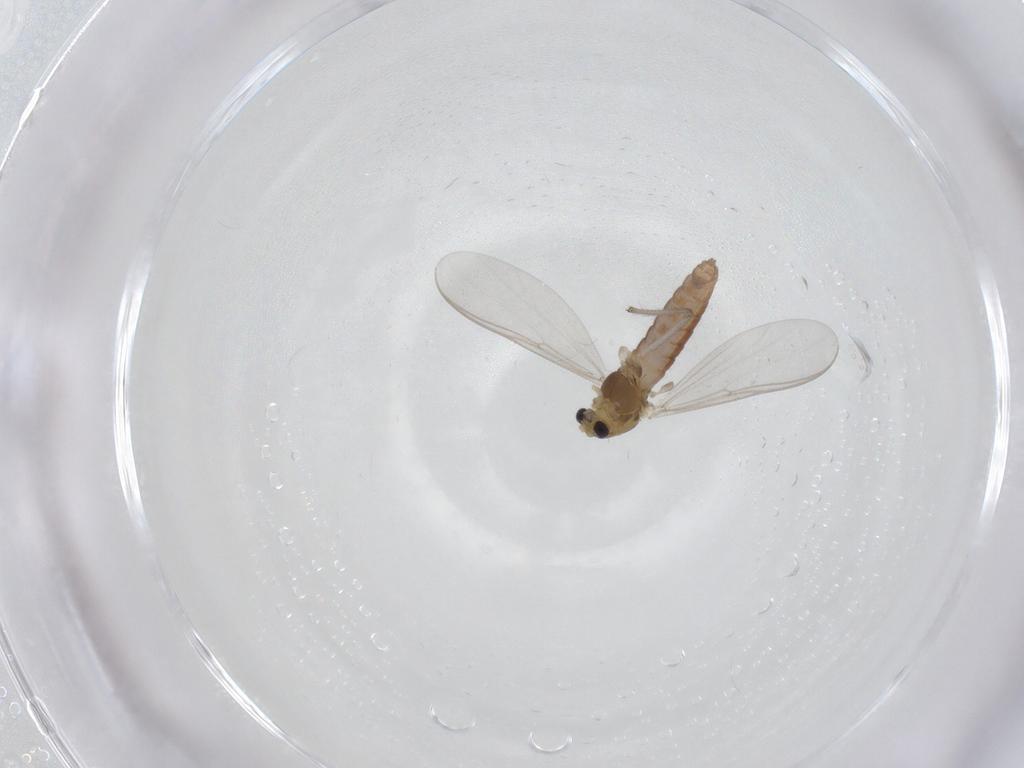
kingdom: Animalia
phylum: Arthropoda
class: Insecta
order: Diptera
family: Chironomidae
